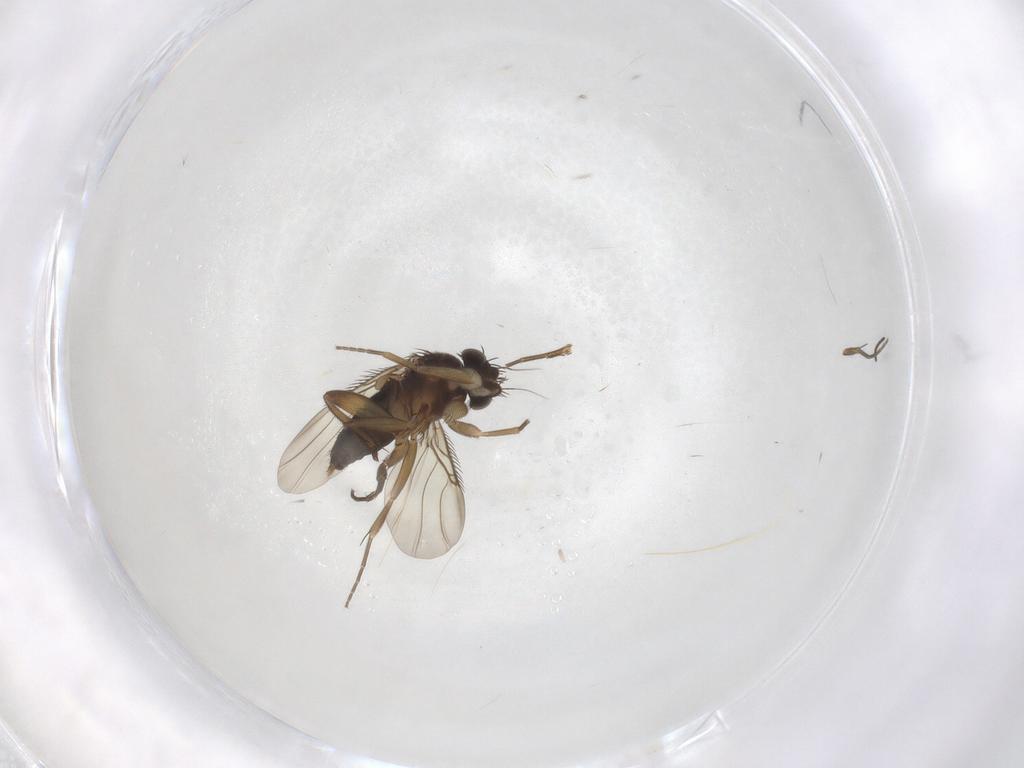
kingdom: Animalia
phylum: Arthropoda
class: Insecta
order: Diptera
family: Phoridae
